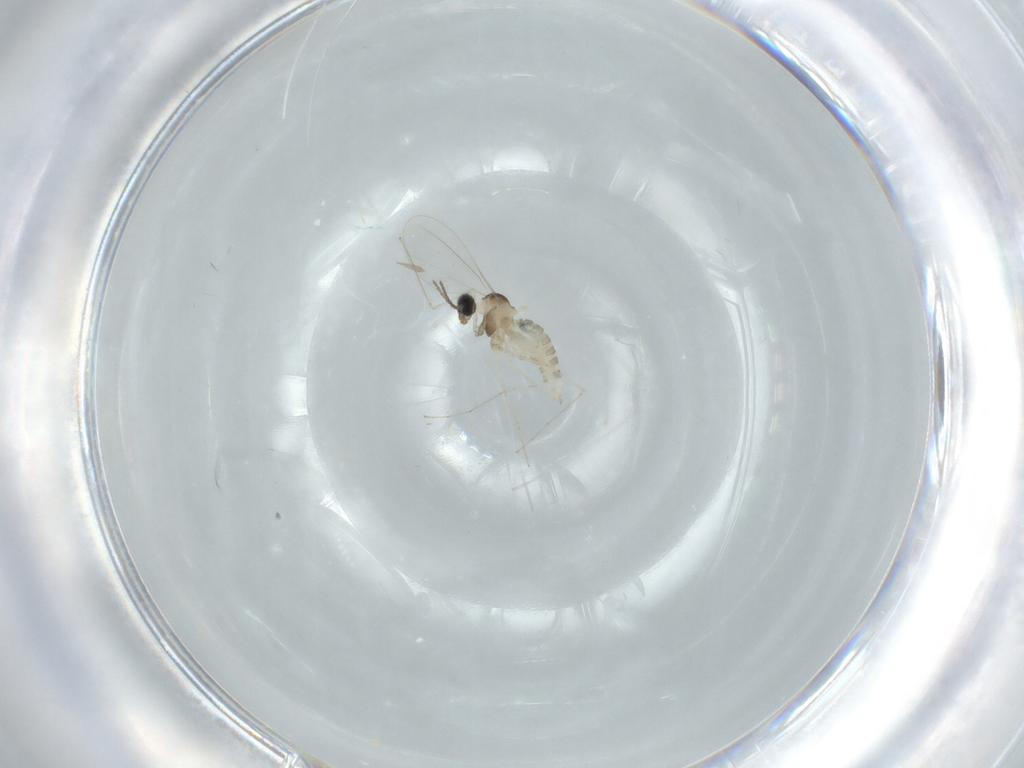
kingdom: Animalia
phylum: Arthropoda
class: Insecta
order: Diptera
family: Cecidomyiidae
